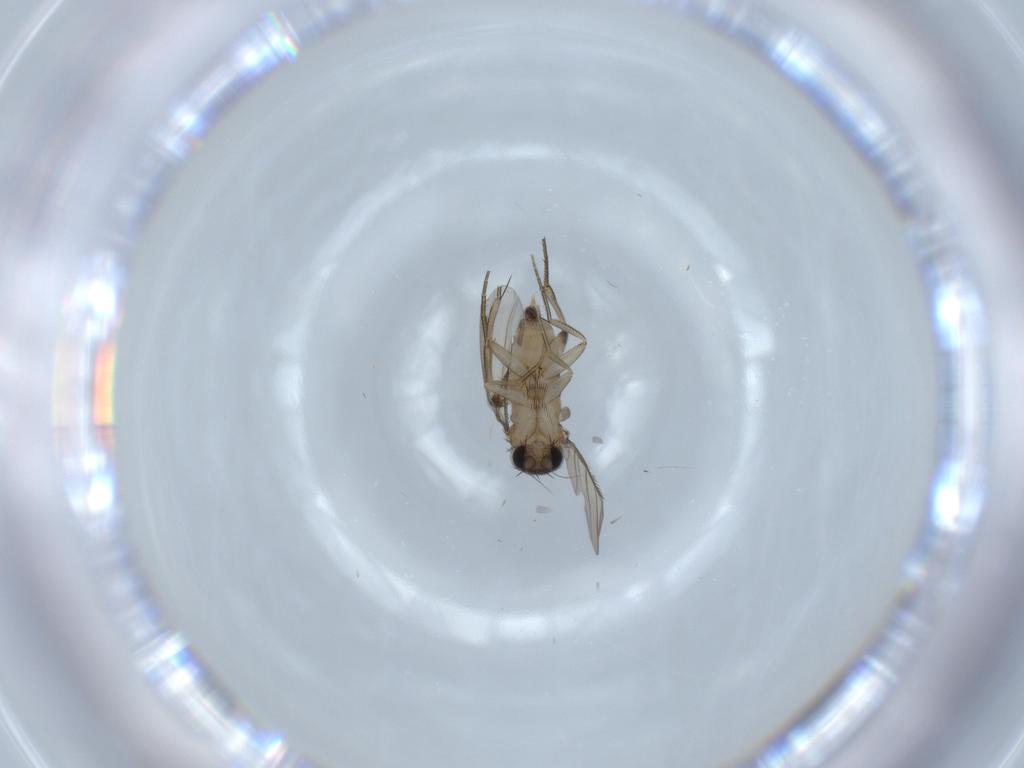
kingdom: Animalia
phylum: Arthropoda
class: Insecta
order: Diptera
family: Phoridae
